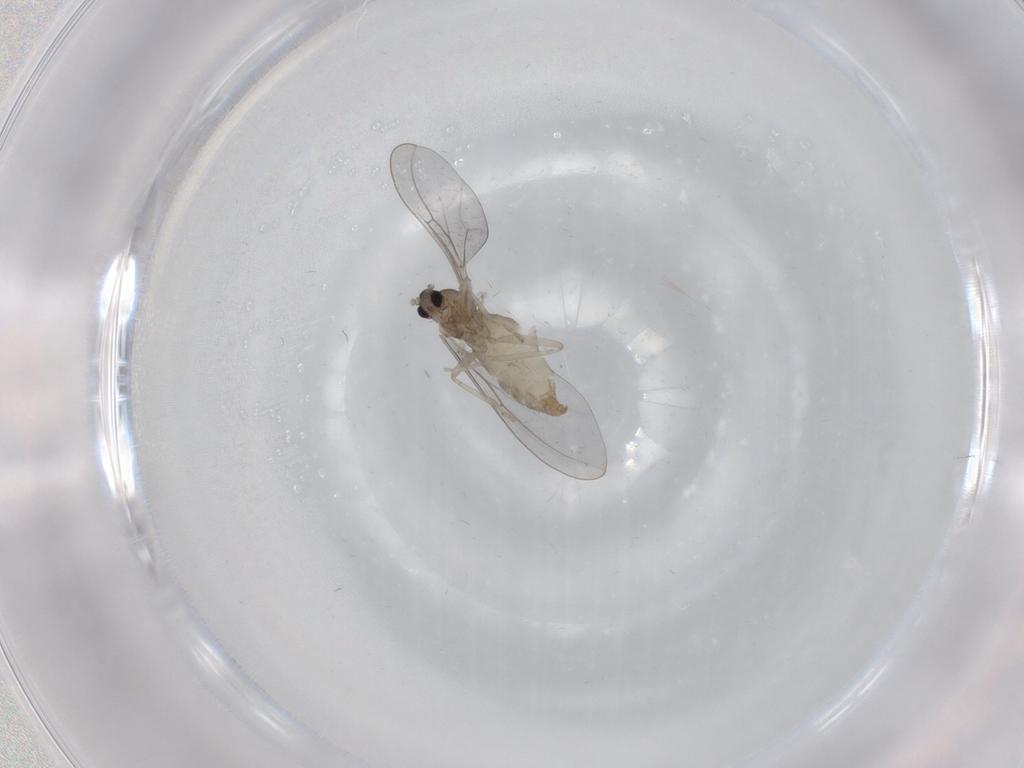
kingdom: Animalia
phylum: Arthropoda
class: Insecta
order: Diptera
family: Cecidomyiidae
